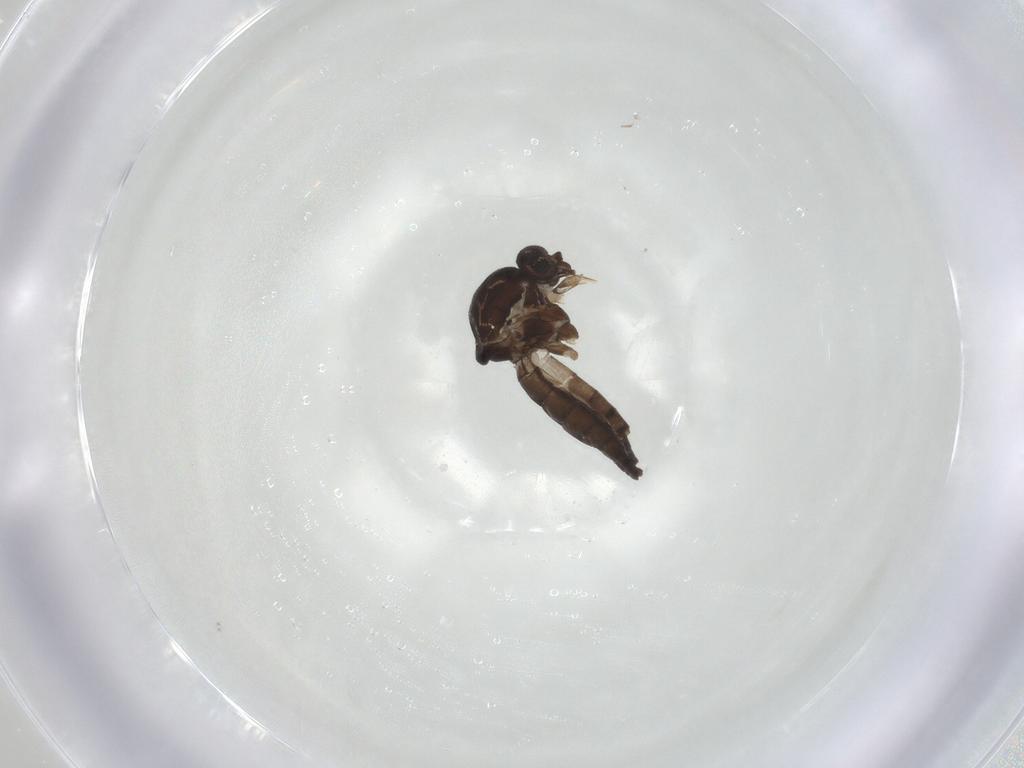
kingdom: Animalia
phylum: Arthropoda
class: Insecta
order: Diptera
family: Ceratopogonidae
